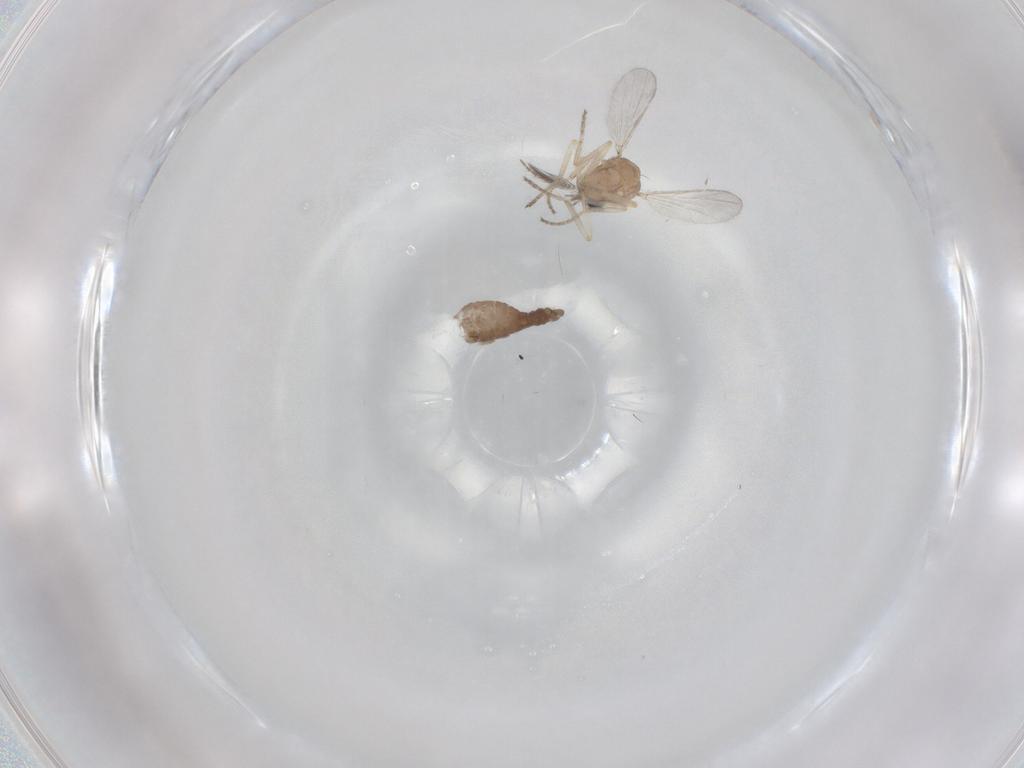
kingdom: Animalia
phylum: Arthropoda
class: Insecta
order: Diptera
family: Ceratopogonidae
